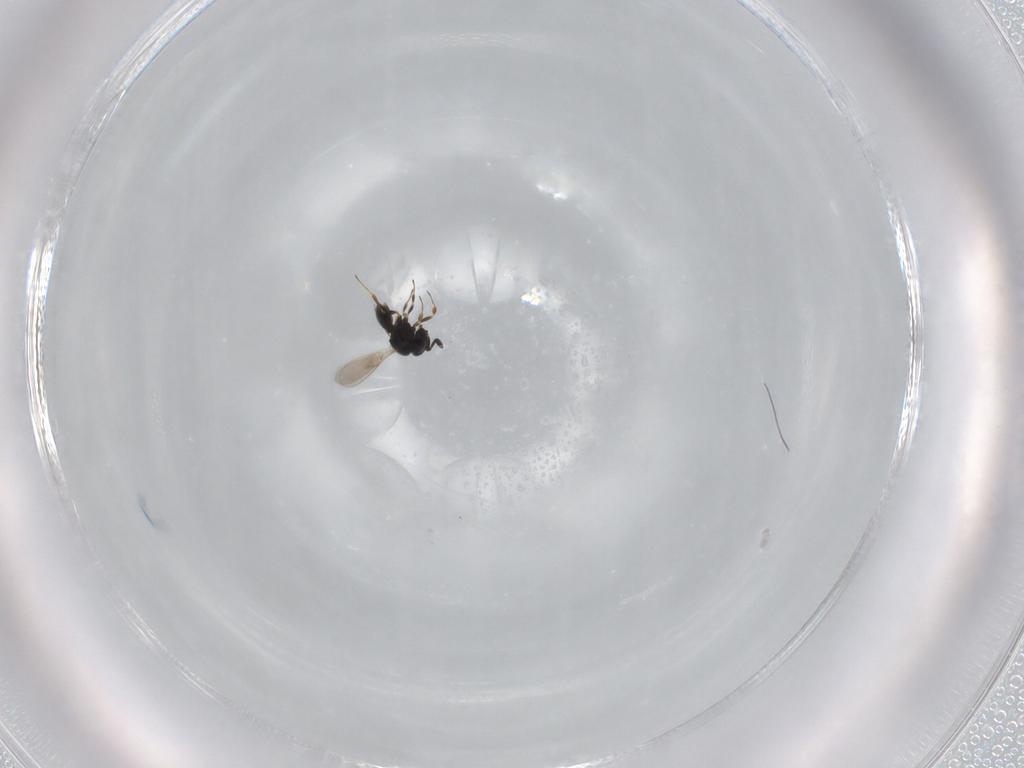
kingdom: Animalia
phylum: Arthropoda
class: Insecta
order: Hymenoptera
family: Scelionidae
